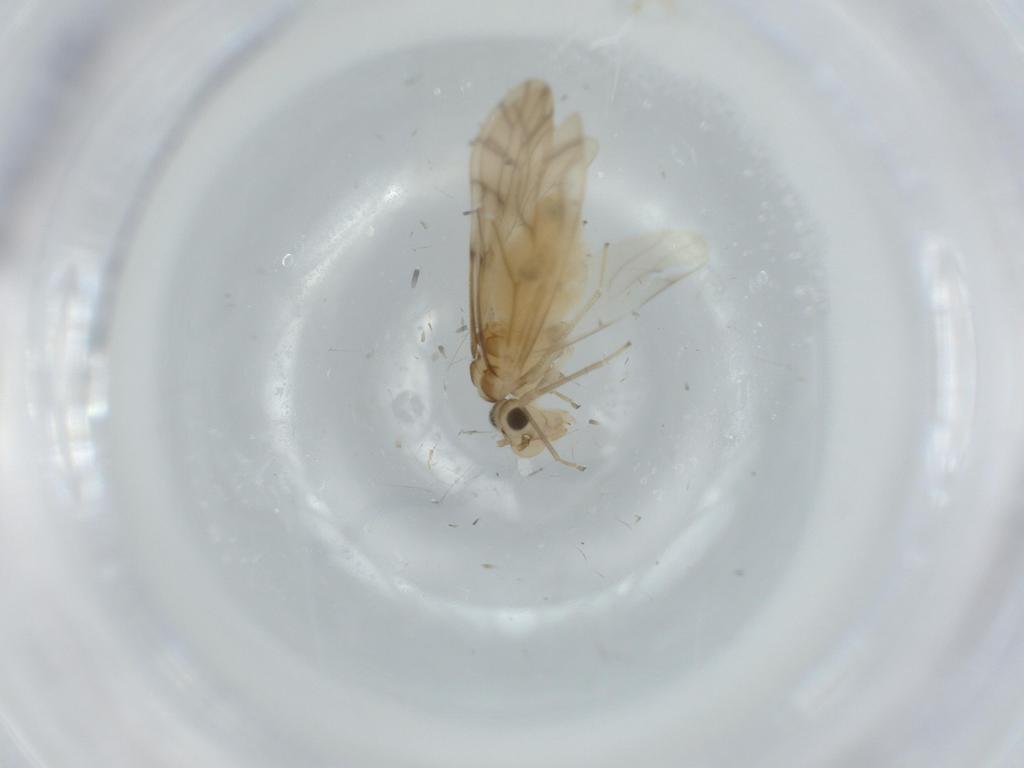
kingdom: Animalia
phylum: Arthropoda
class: Insecta
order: Psocodea
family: Caeciliusidae
